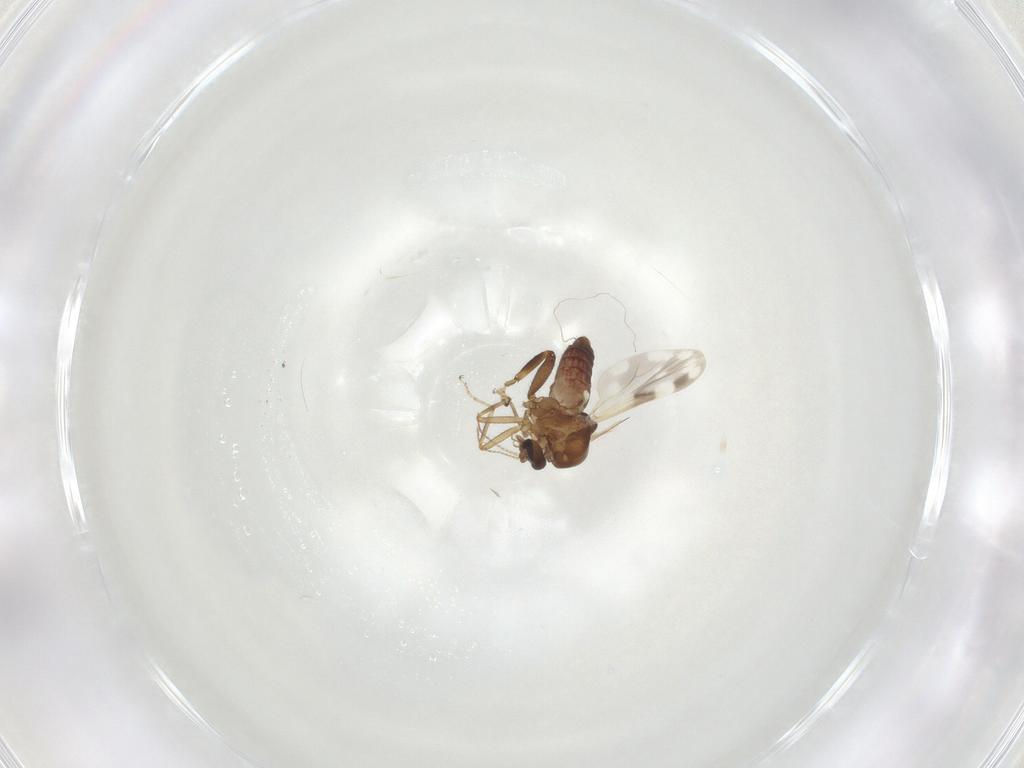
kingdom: Animalia
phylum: Arthropoda
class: Insecta
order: Diptera
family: Ceratopogonidae
